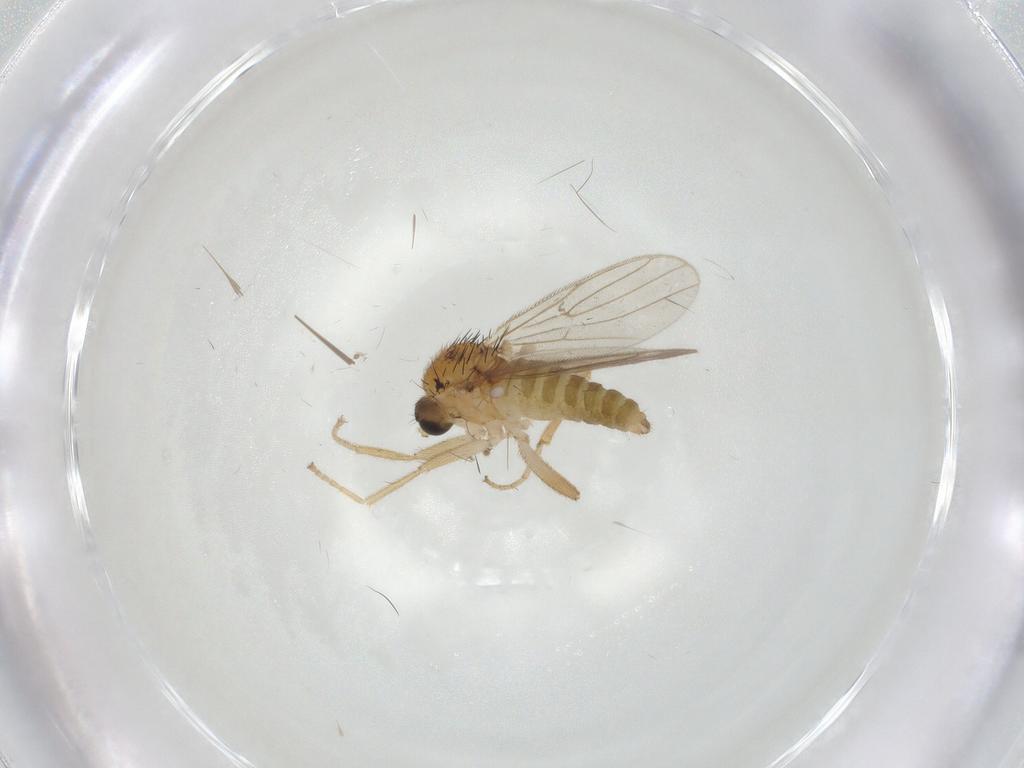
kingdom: Animalia
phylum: Arthropoda
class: Insecta
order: Diptera
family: Hybotidae
